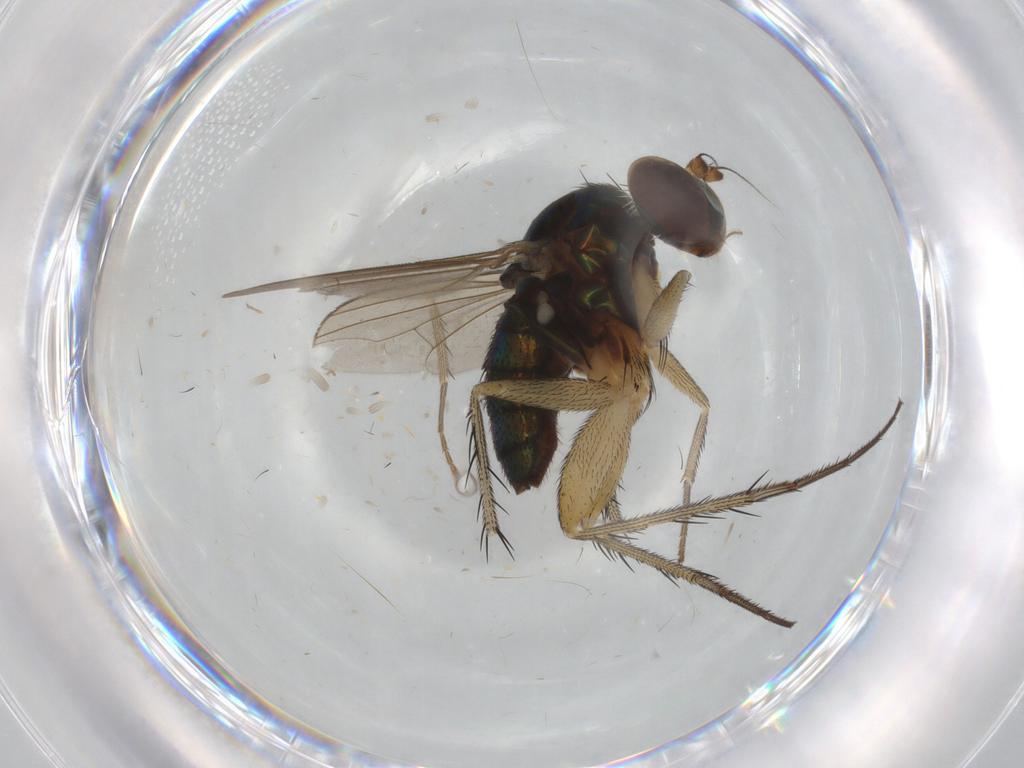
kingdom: Animalia
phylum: Arthropoda
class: Insecta
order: Diptera
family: Dolichopodidae
